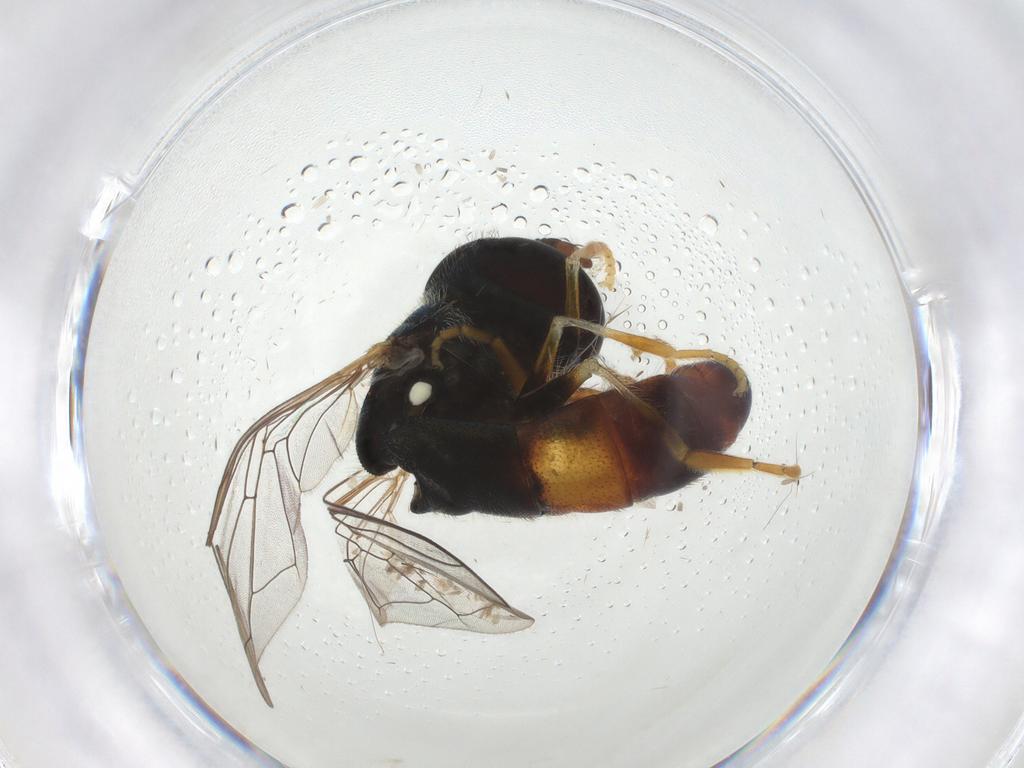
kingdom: Animalia
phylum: Arthropoda
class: Insecta
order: Diptera
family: Syrphidae
